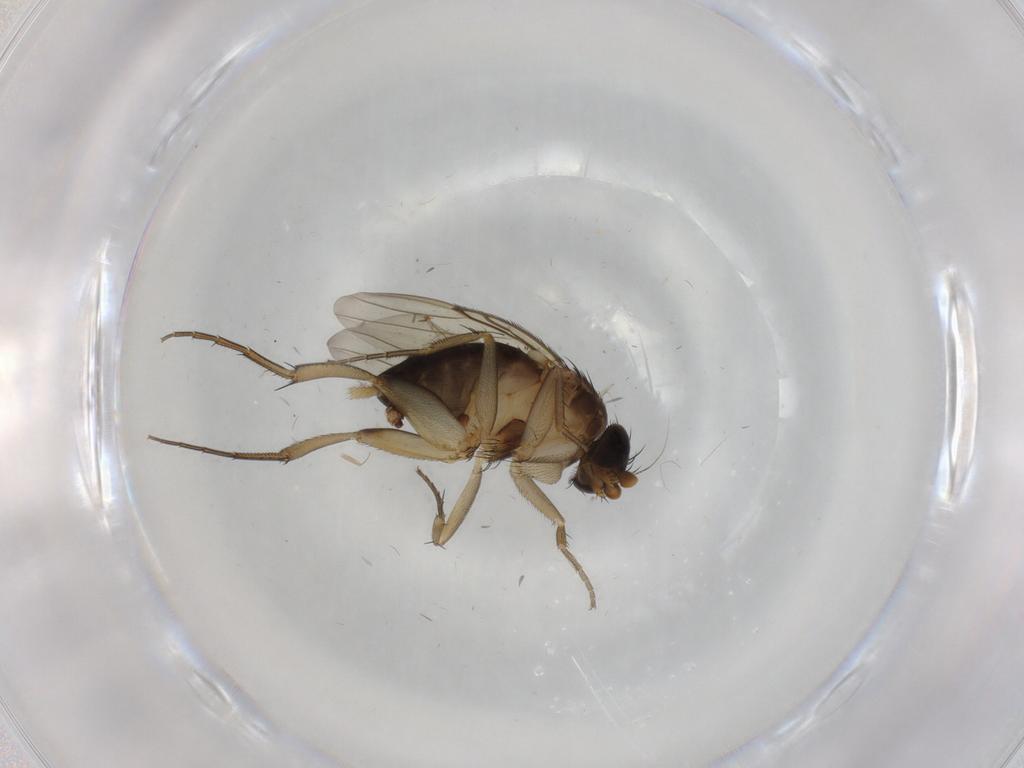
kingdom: Animalia
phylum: Arthropoda
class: Insecta
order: Diptera
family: Phoridae
